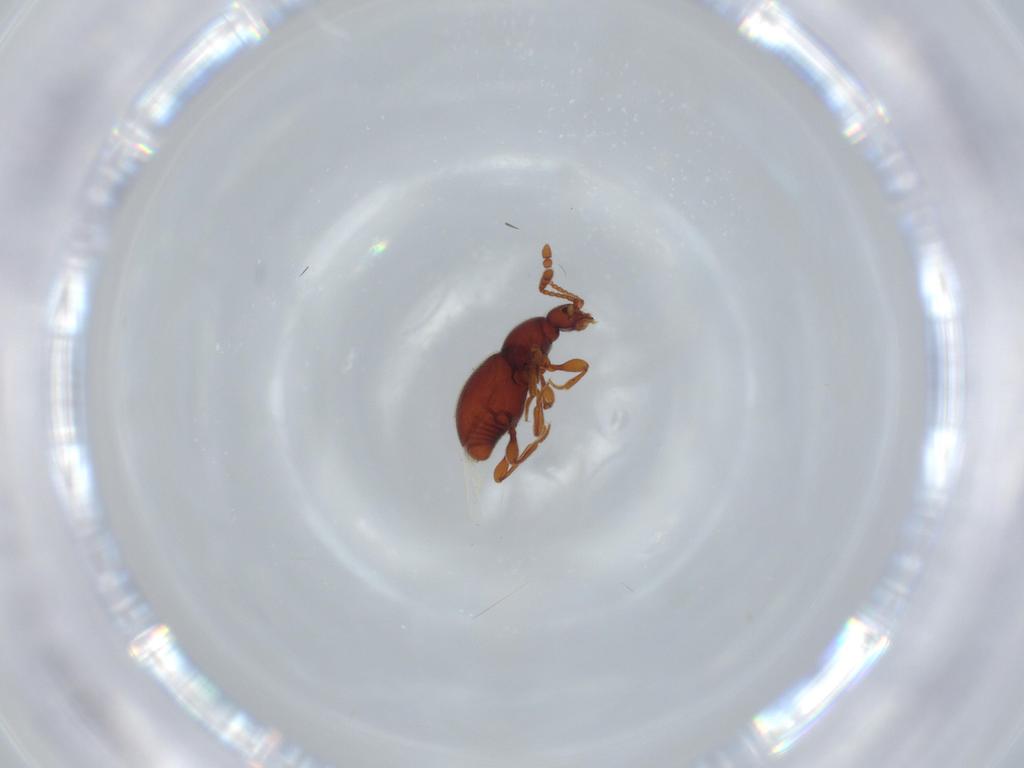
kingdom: Animalia
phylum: Arthropoda
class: Insecta
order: Coleoptera
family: Staphylinidae
